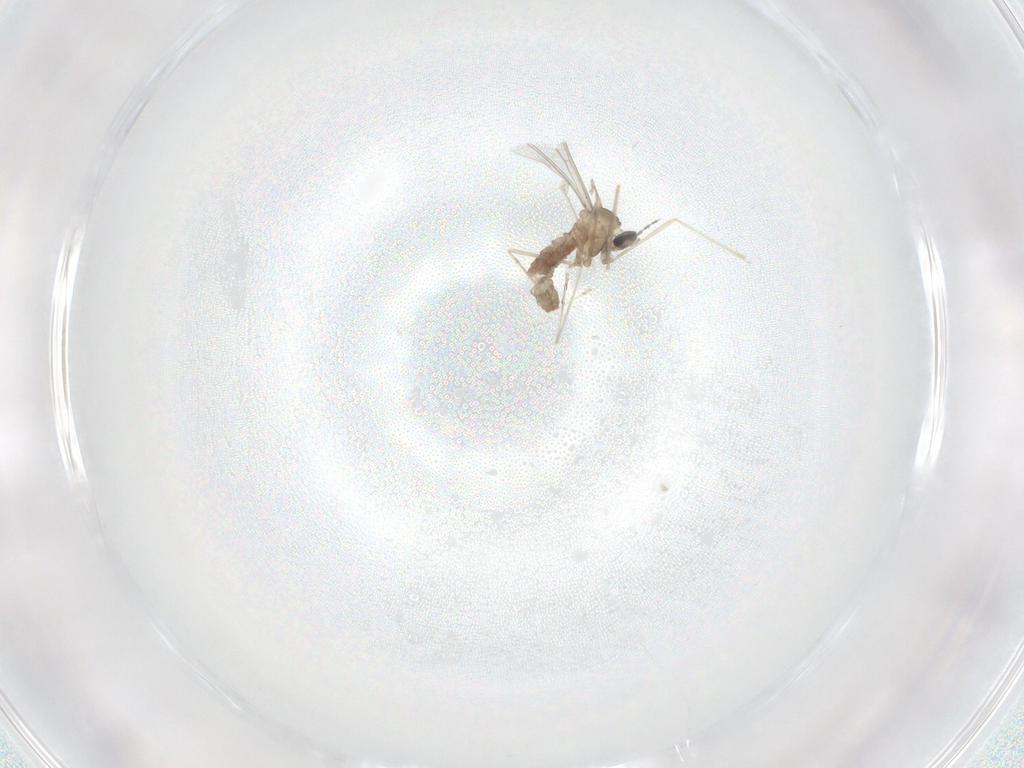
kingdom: Animalia
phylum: Arthropoda
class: Insecta
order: Diptera
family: Cecidomyiidae
